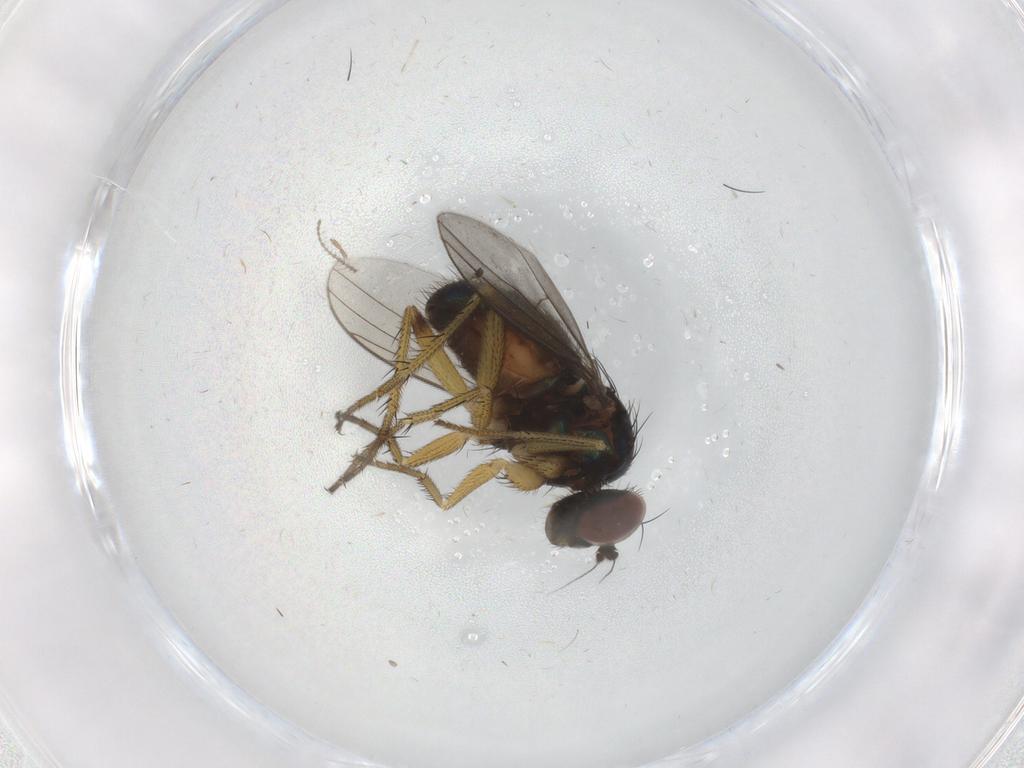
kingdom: Animalia
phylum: Arthropoda
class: Insecta
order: Diptera
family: Dolichopodidae
